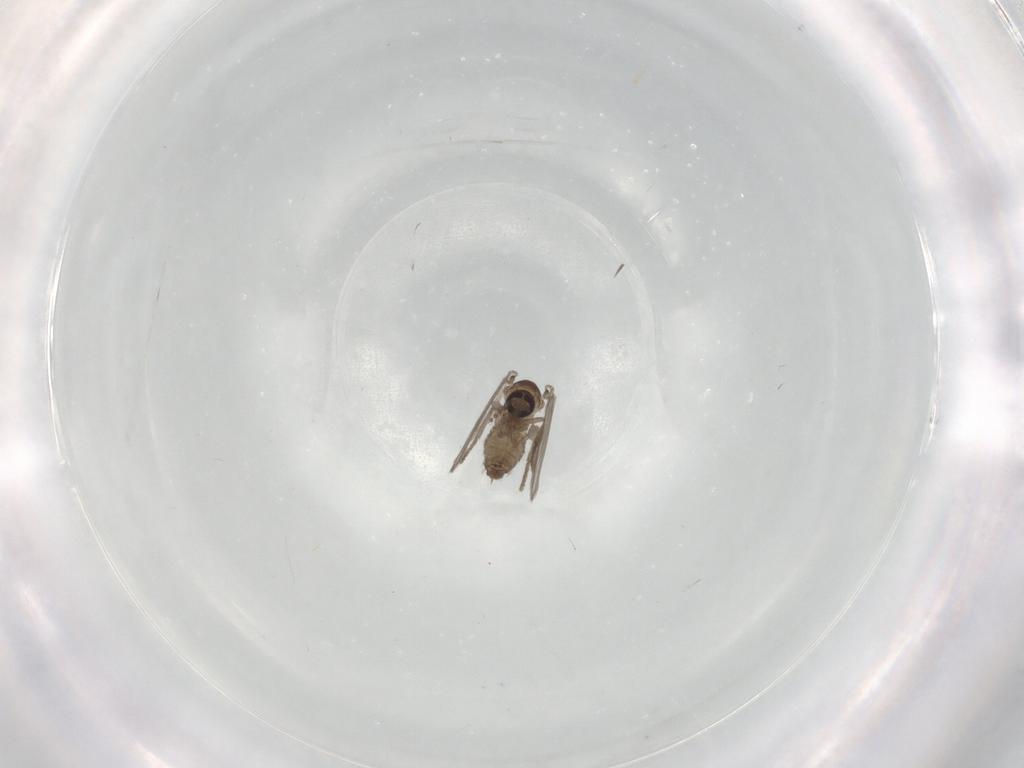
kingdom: Animalia
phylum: Arthropoda
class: Insecta
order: Diptera
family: Psychodidae
